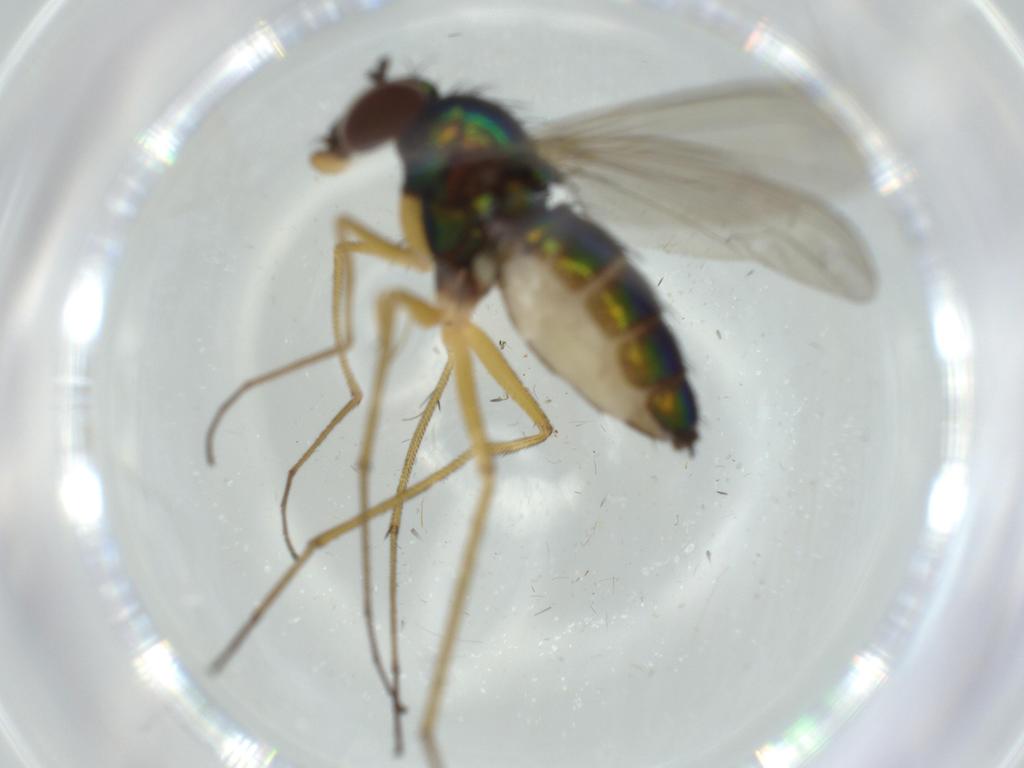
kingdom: Animalia
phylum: Arthropoda
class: Insecta
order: Diptera
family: Dolichopodidae
